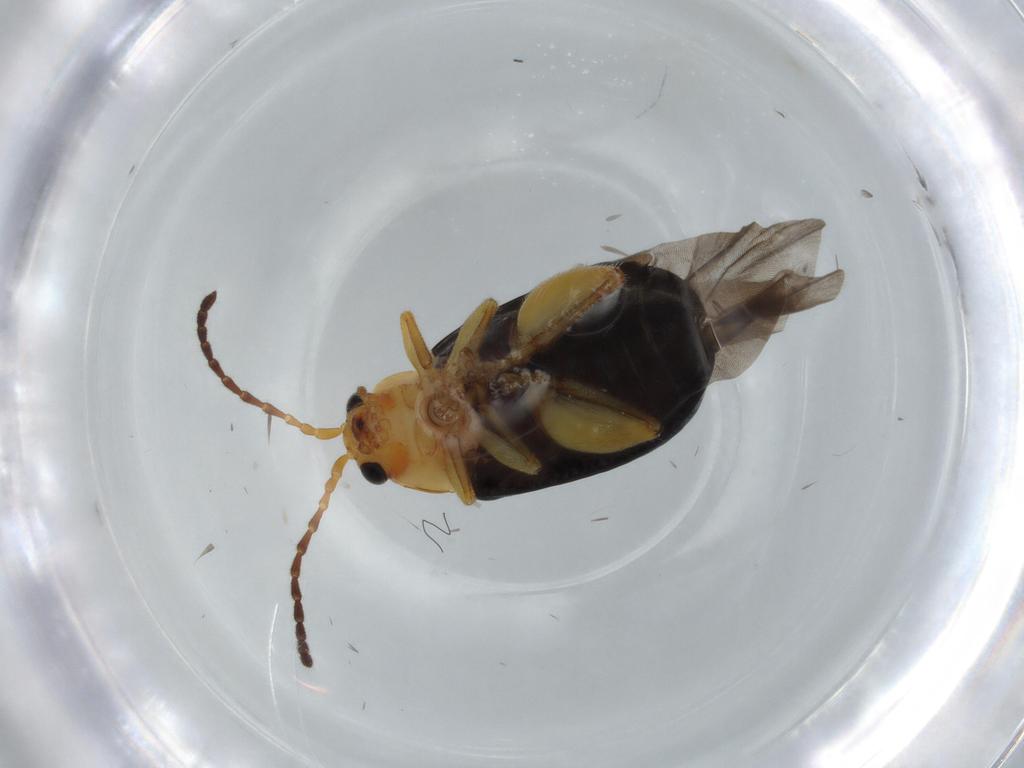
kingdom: Animalia
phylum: Arthropoda
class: Insecta
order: Coleoptera
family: Chrysomelidae
